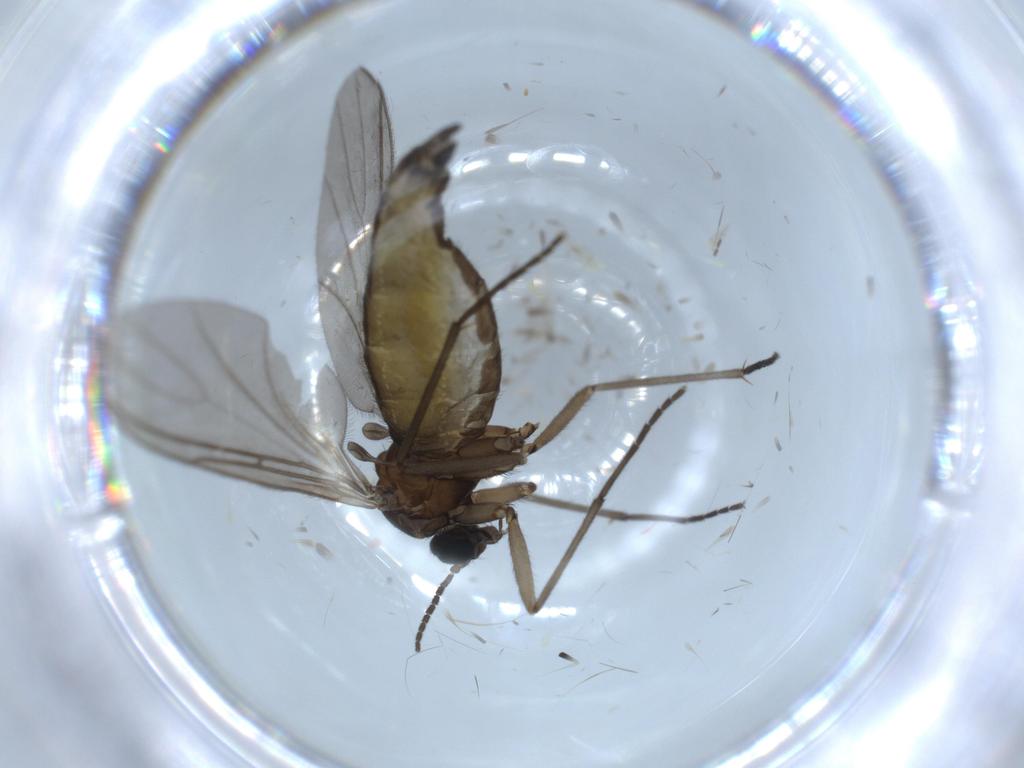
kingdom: Animalia
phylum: Arthropoda
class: Insecta
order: Diptera
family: Sciaridae
